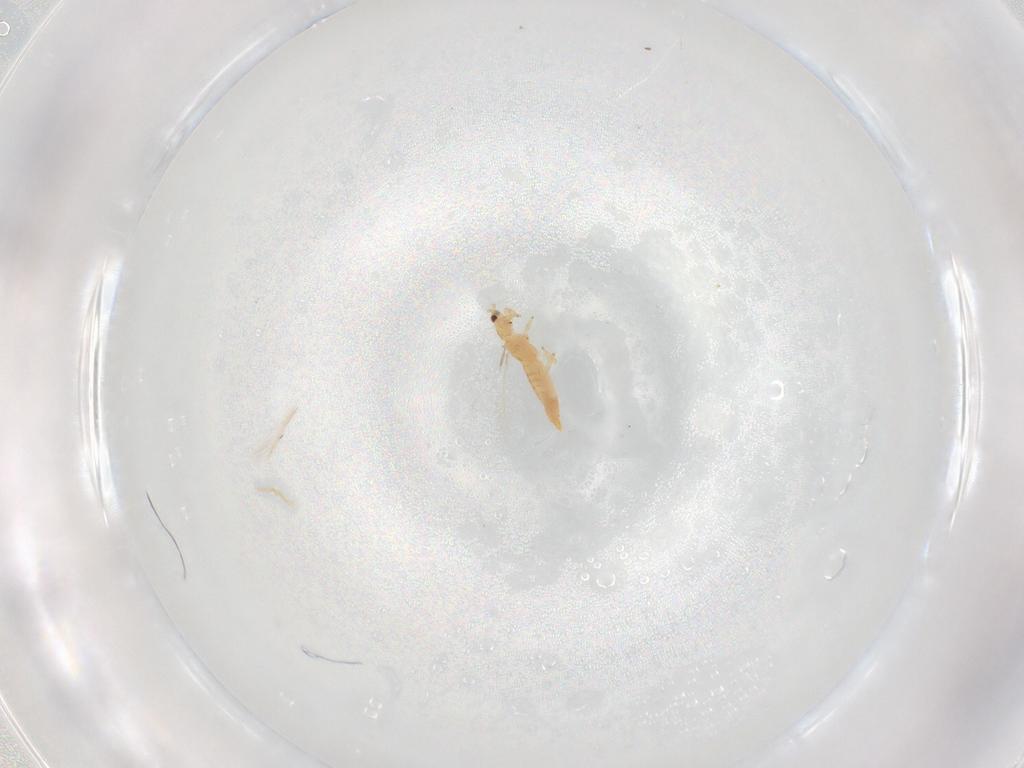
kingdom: Animalia
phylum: Arthropoda
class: Insecta
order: Thysanoptera
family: Thripidae
